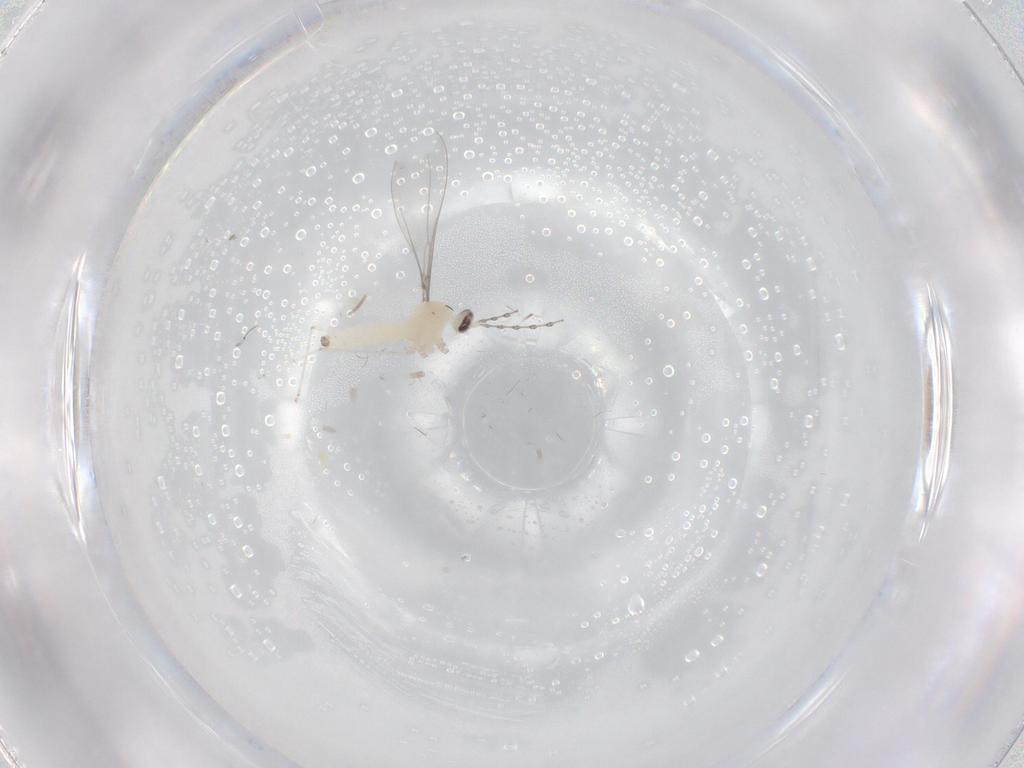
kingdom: Animalia
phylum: Arthropoda
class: Insecta
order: Diptera
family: Cecidomyiidae
